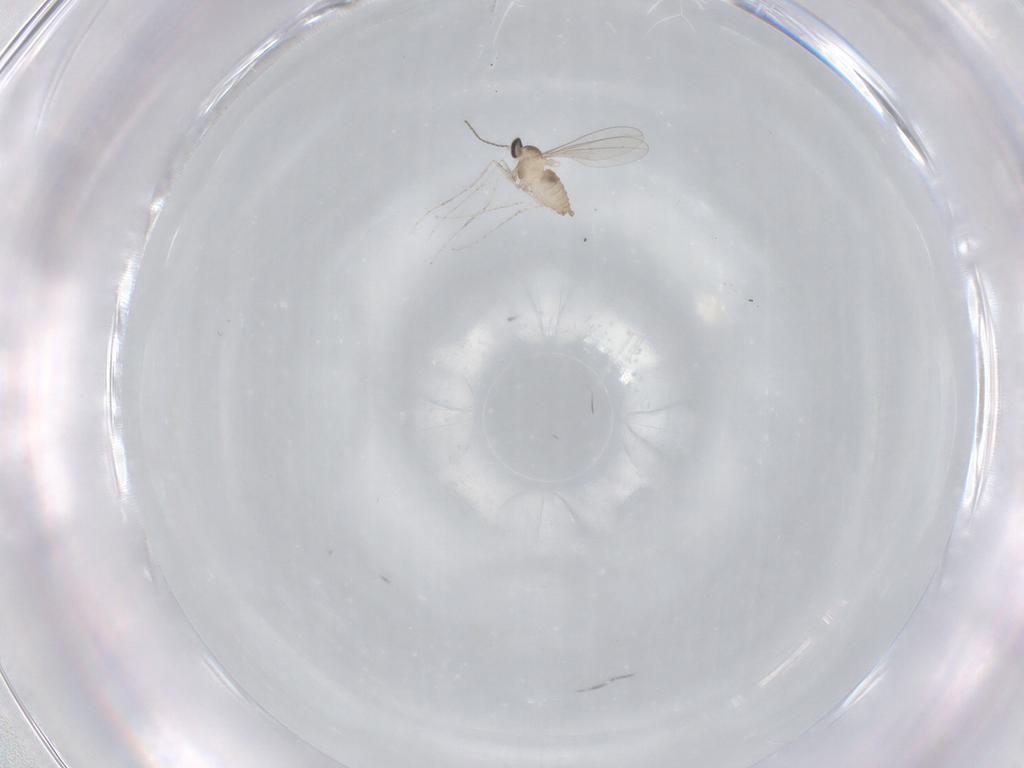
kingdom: Animalia
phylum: Arthropoda
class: Insecta
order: Diptera
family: Cecidomyiidae
